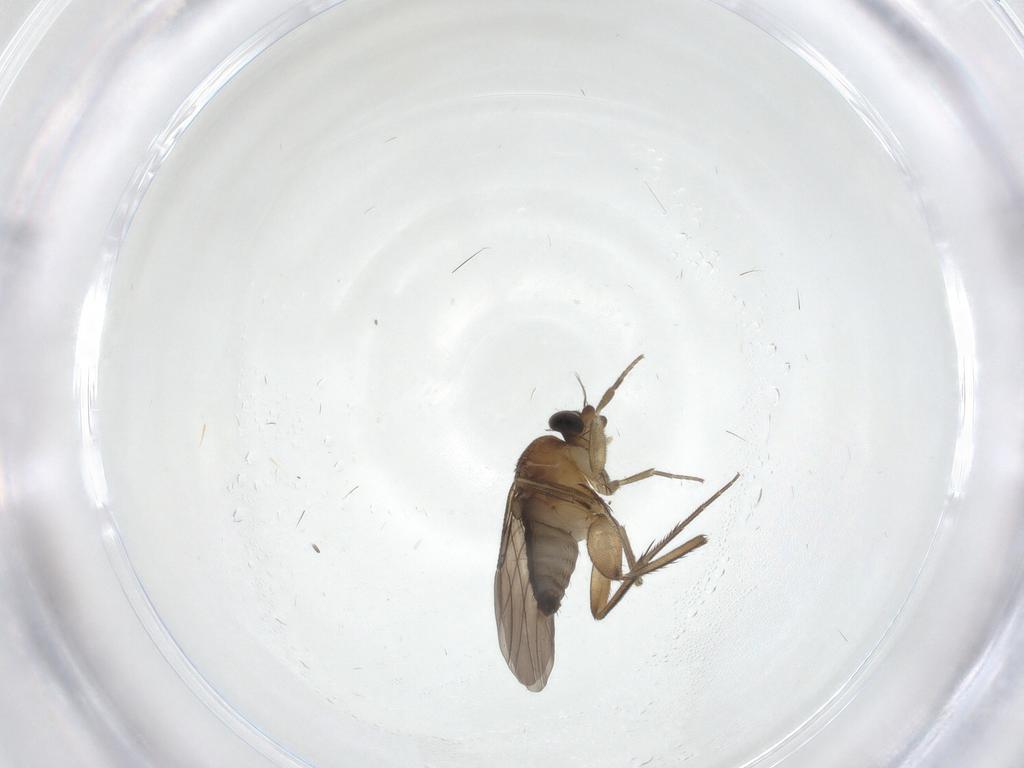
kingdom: Animalia
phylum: Arthropoda
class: Insecta
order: Diptera
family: Phoridae
